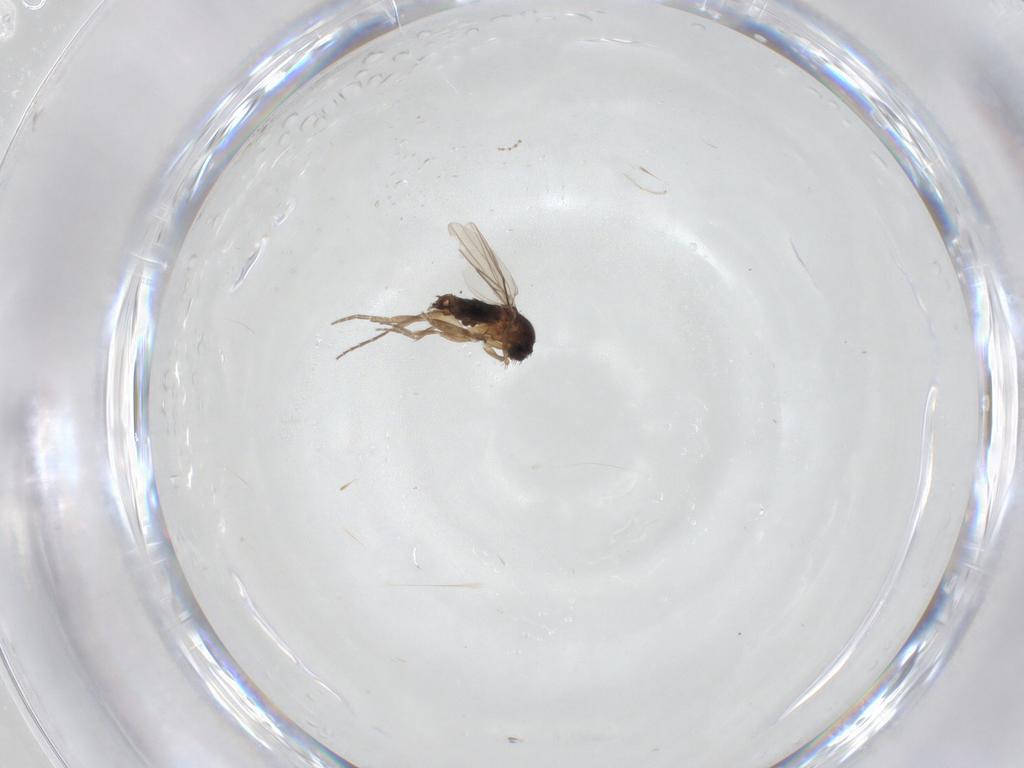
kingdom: Animalia
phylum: Arthropoda
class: Insecta
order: Diptera
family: Phoridae
